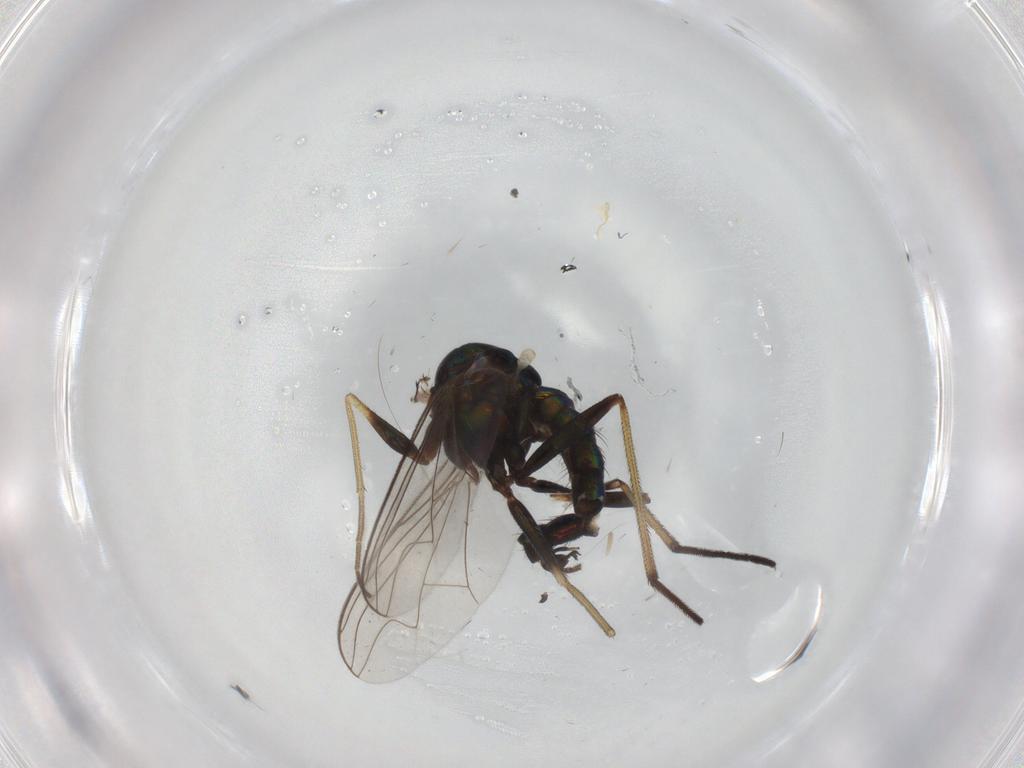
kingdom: Animalia
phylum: Arthropoda
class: Insecta
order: Diptera
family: Dolichopodidae
